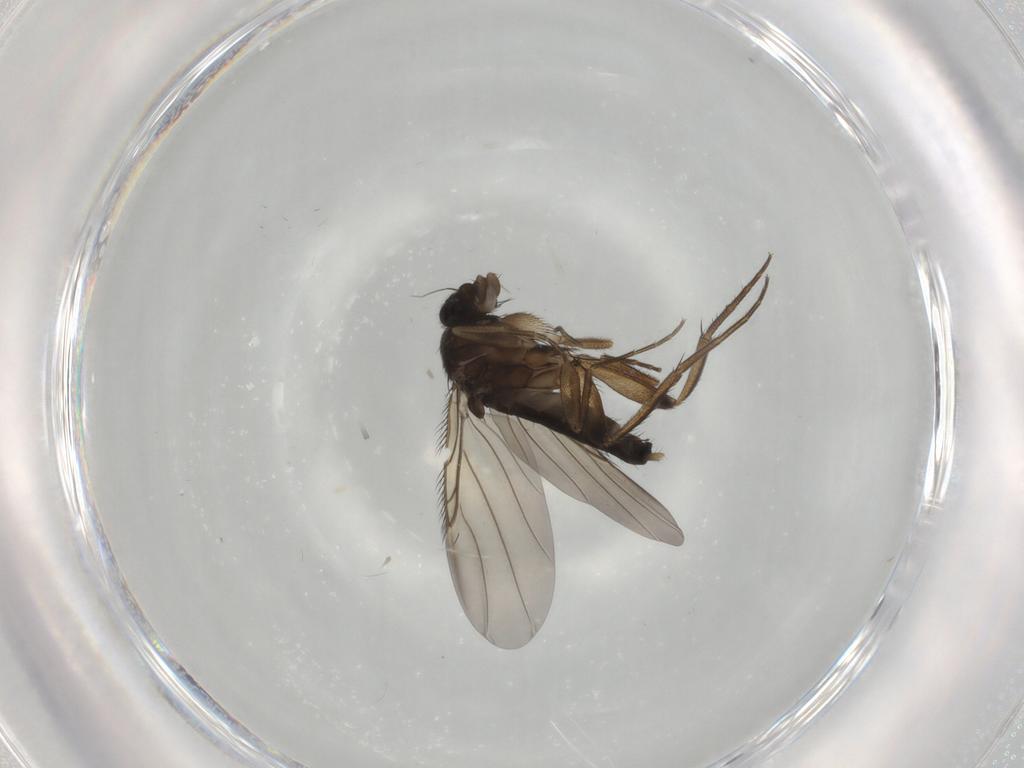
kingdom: Animalia
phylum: Arthropoda
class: Insecta
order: Diptera
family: Phoridae
